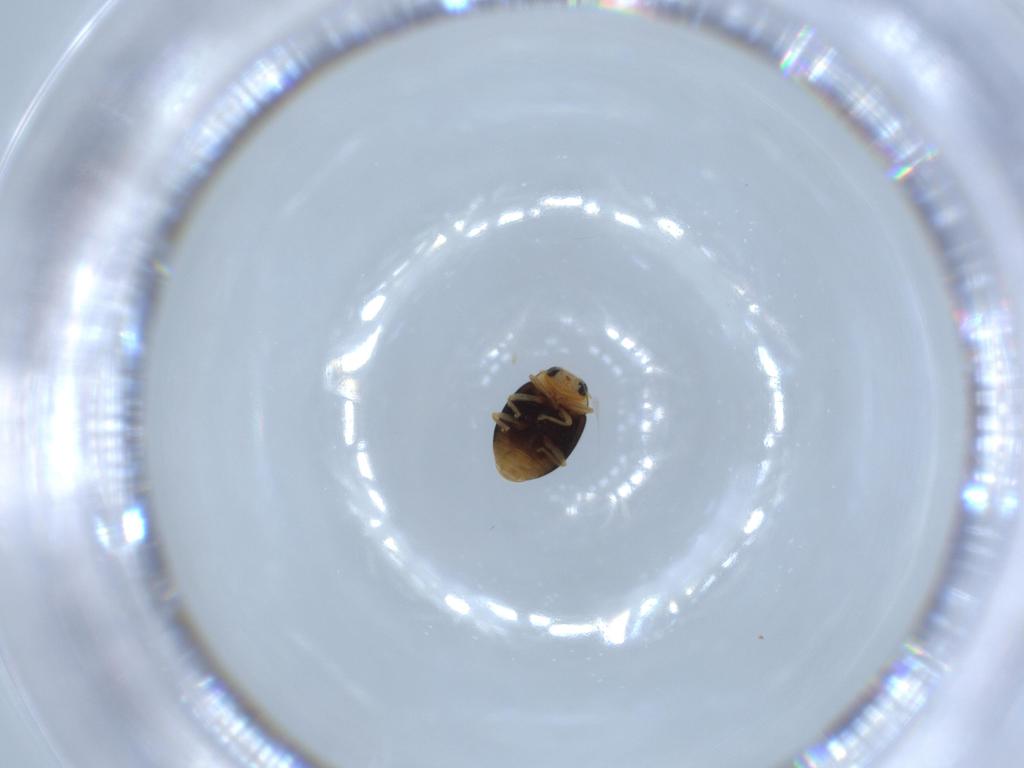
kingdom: Animalia
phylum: Arthropoda
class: Insecta
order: Coleoptera
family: Coccinellidae
